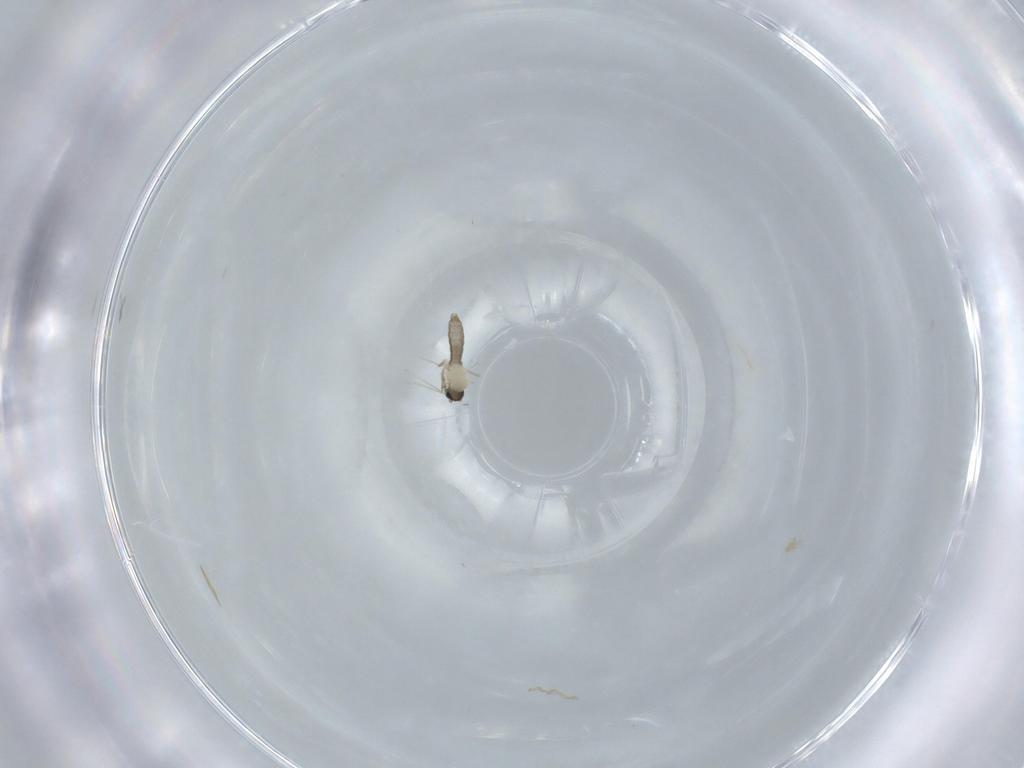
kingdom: Animalia
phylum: Arthropoda
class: Insecta
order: Diptera
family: Cecidomyiidae
